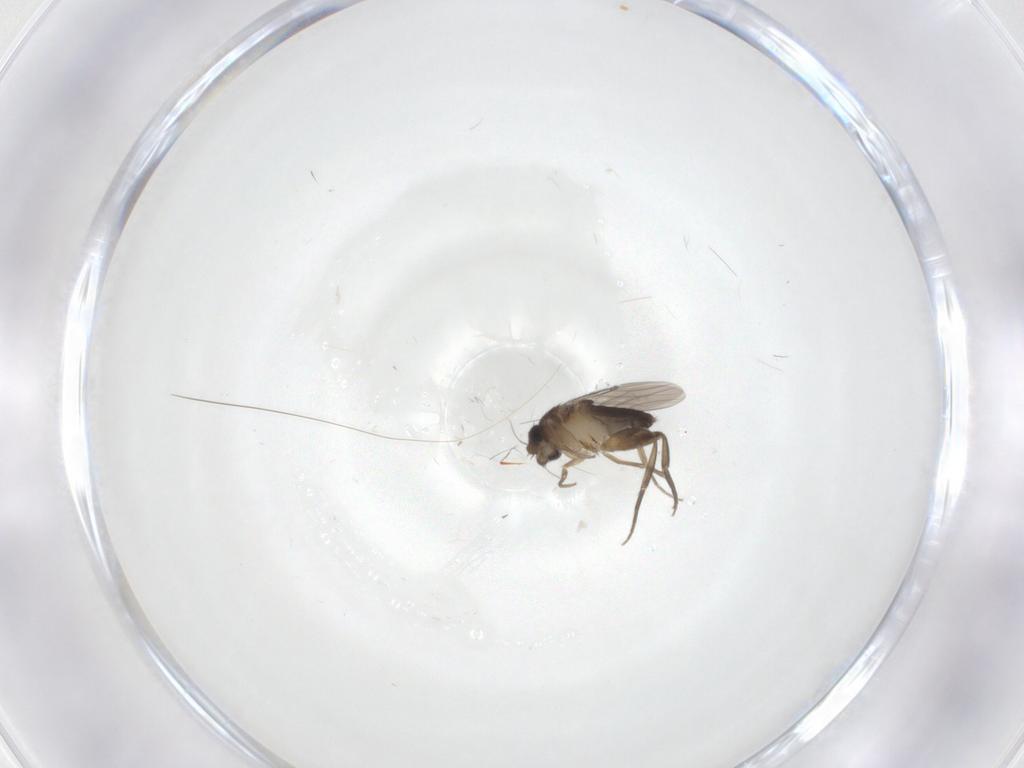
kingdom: Animalia
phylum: Arthropoda
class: Insecta
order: Diptera
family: Phoridae
